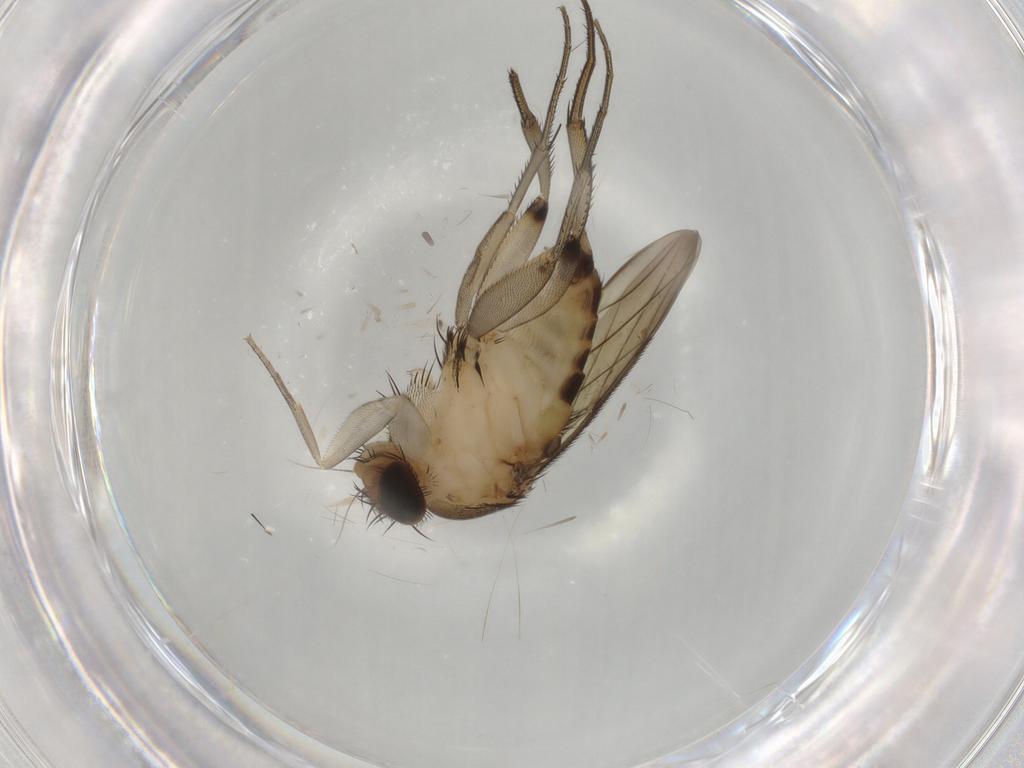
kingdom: Animalia
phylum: Arthropoda
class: Insecta
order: Diptera
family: Phoridae
